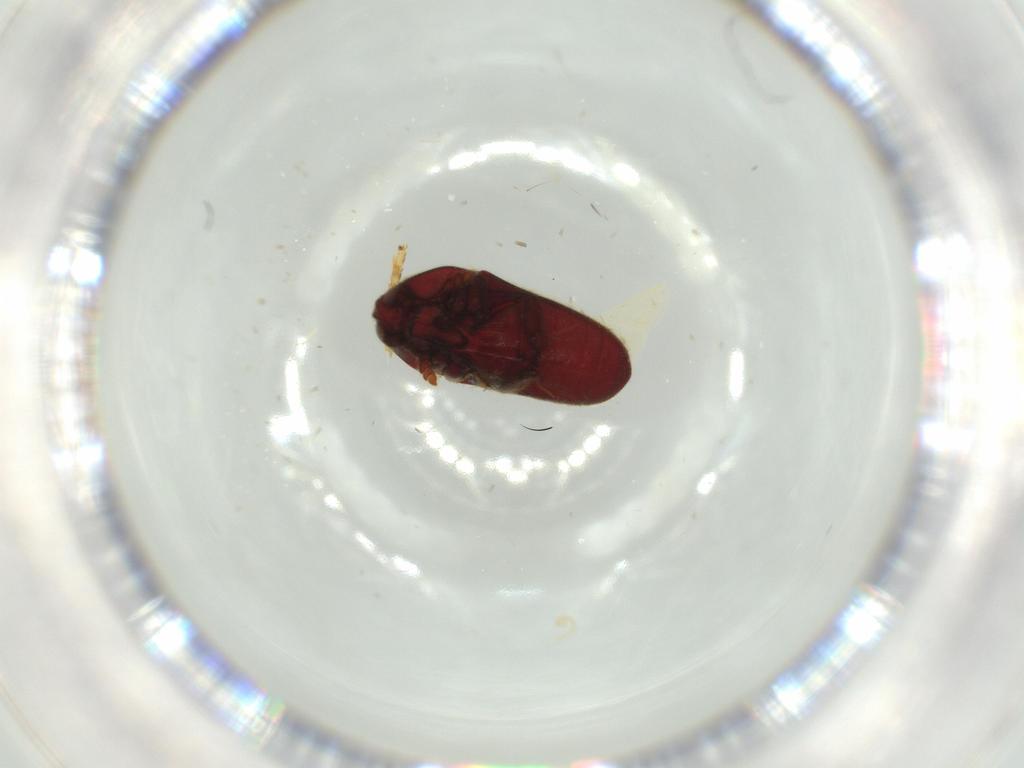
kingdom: Animalia
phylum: Arthropoda
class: Insecta
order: Coleoptera
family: Throscidae
